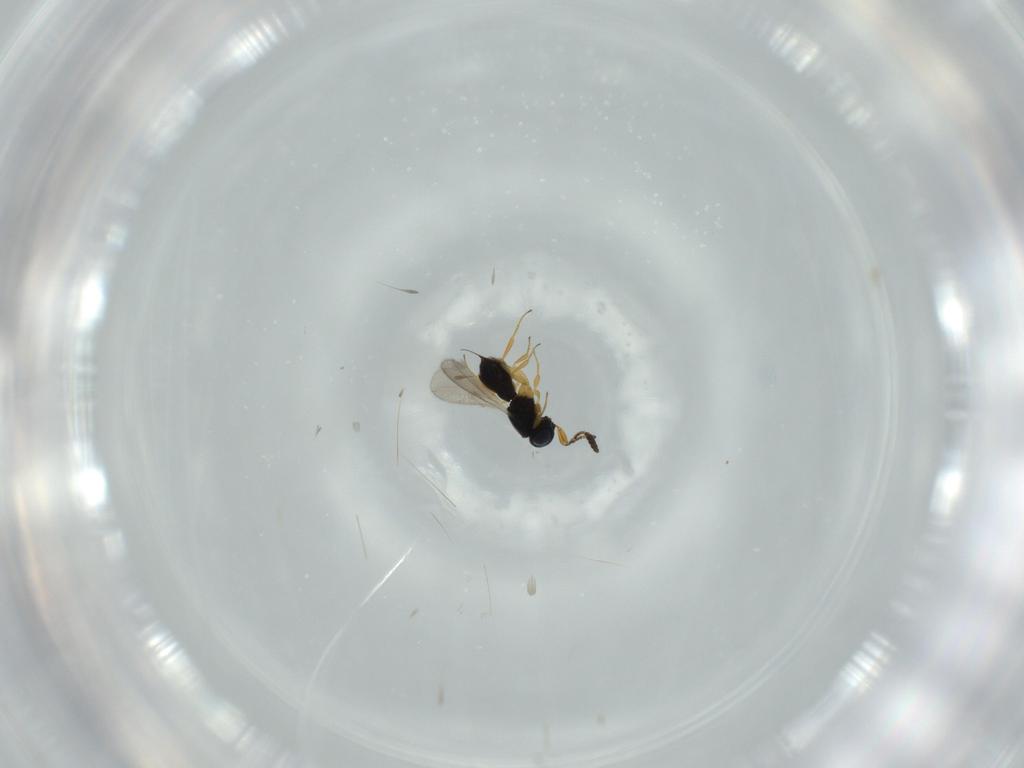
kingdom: Animalia
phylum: Arthropoda
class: Insecta
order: Hymenoptera
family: Scelionidae
